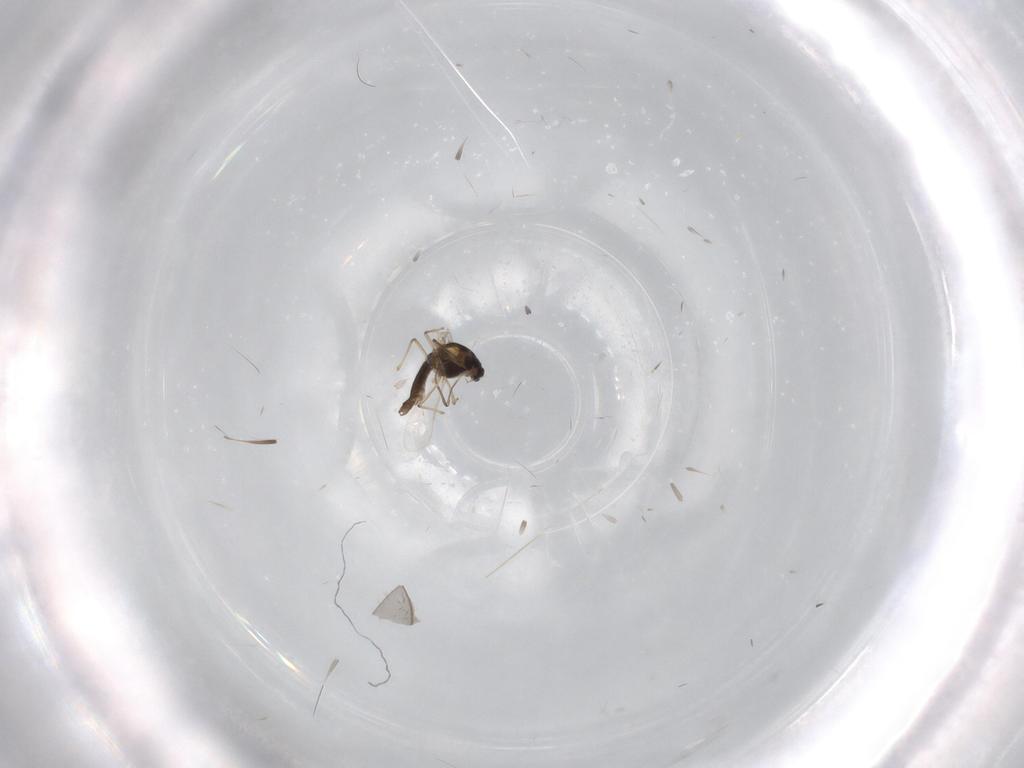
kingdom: Animalia
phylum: Arthropoda
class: Insecta
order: Diptera
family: Chironomidae
